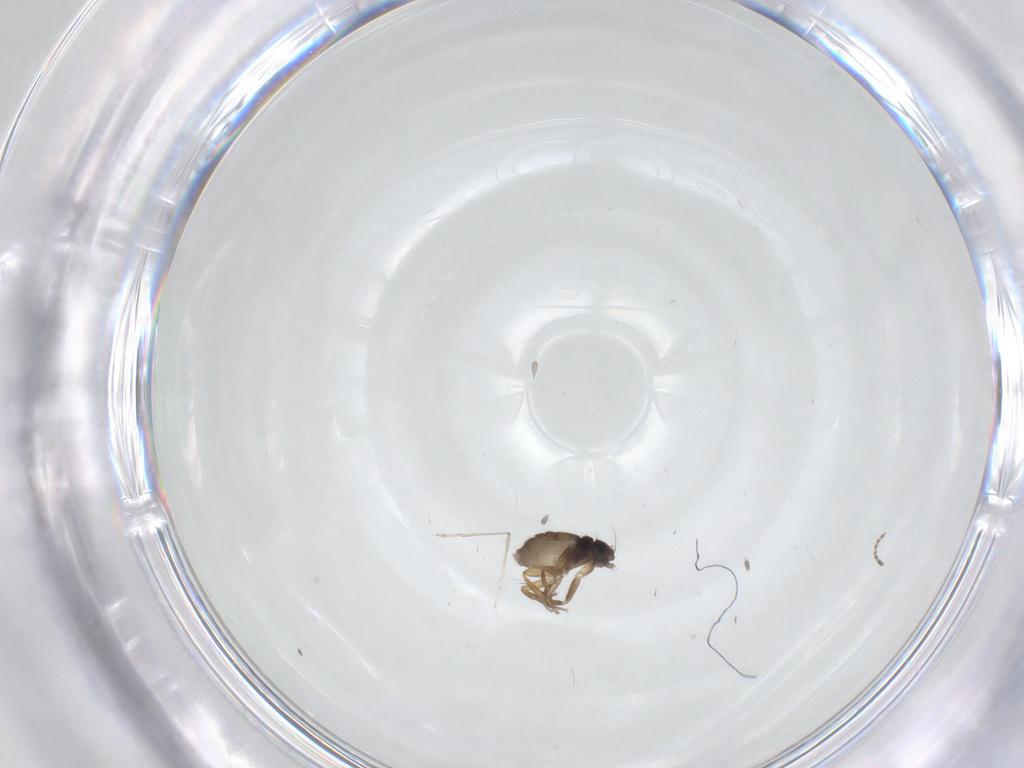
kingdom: Animalia
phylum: Arthropoda
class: Insecta
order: Diptera
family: Phoridae
